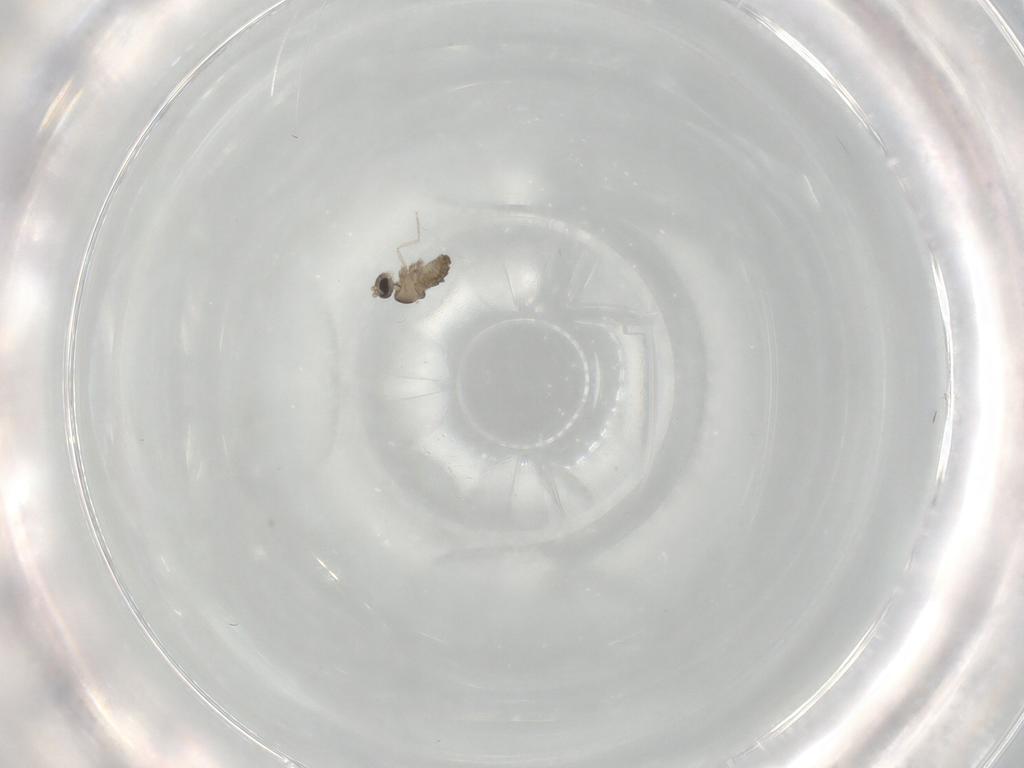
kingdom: Animalia
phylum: Arthropoda
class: Insecta
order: Diptera
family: Cecidomyiidae
